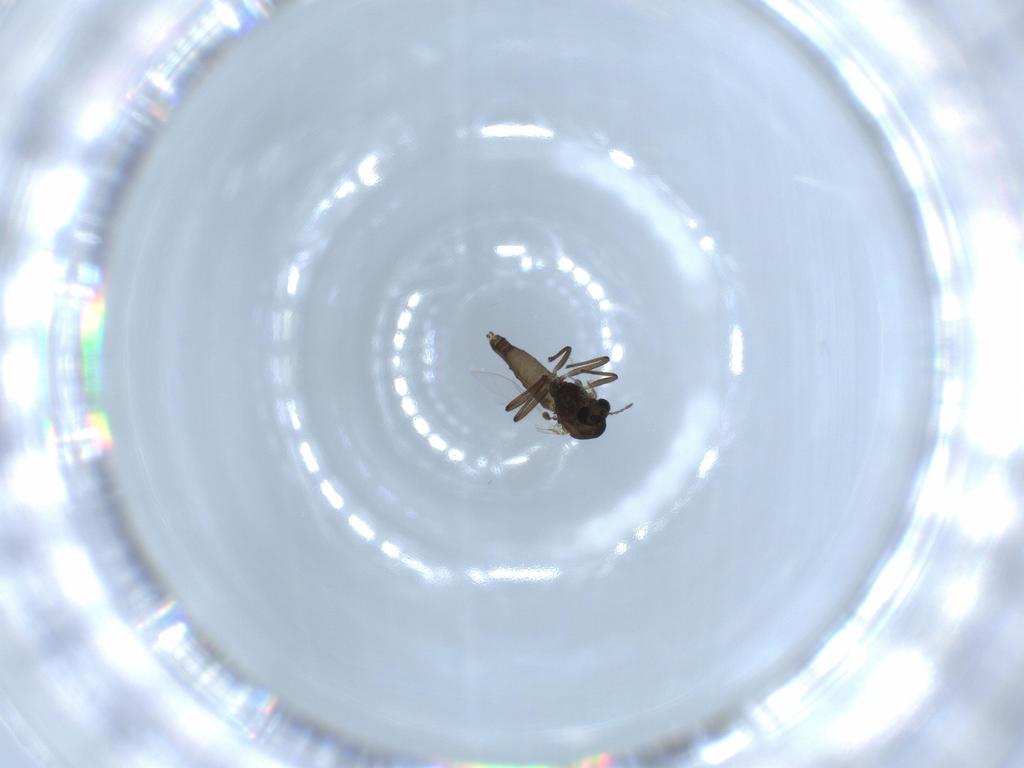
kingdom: Animalia
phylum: Arthropoda
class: Insecta
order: Diptera
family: Chironomidae
